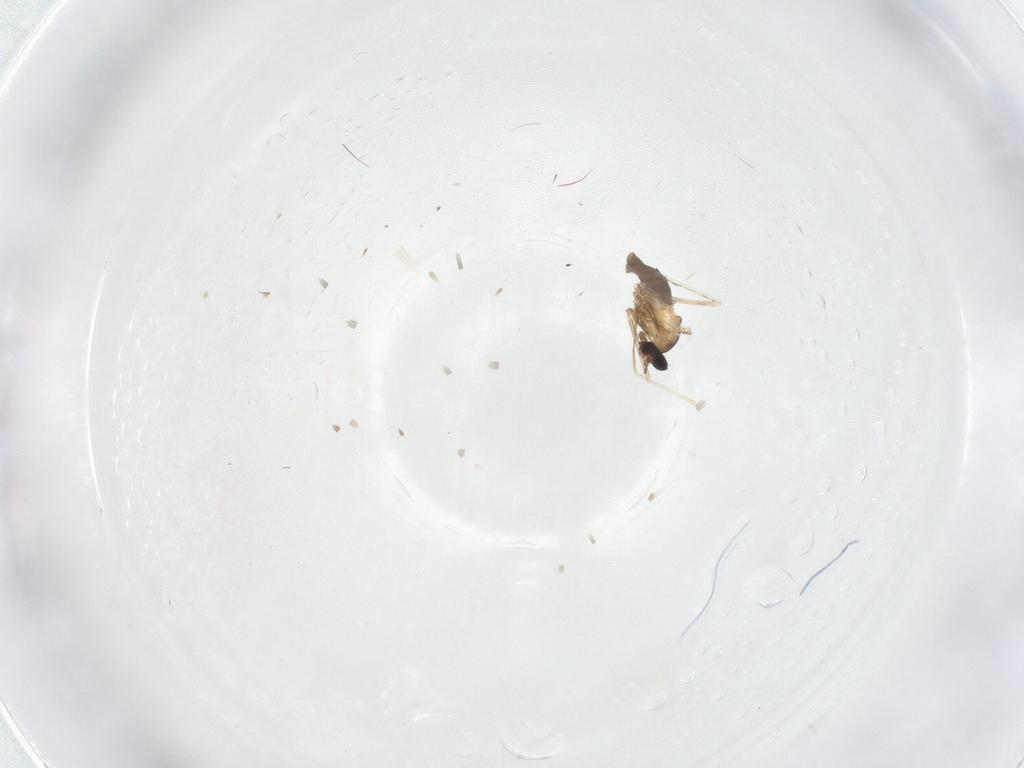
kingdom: Animalia
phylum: Arthropoda
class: Insecta
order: Diptera
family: Cecidomyiidae
